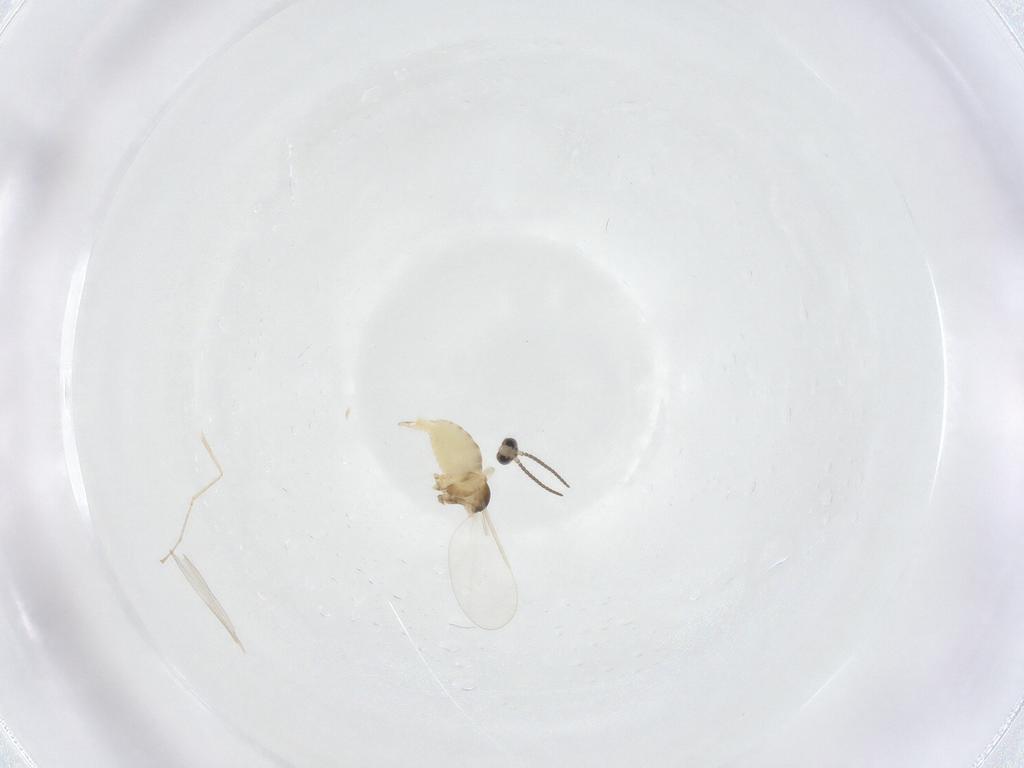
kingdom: Animalia
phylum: Arthropoda
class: Insecta
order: Diptera
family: Cecidomyiidae
